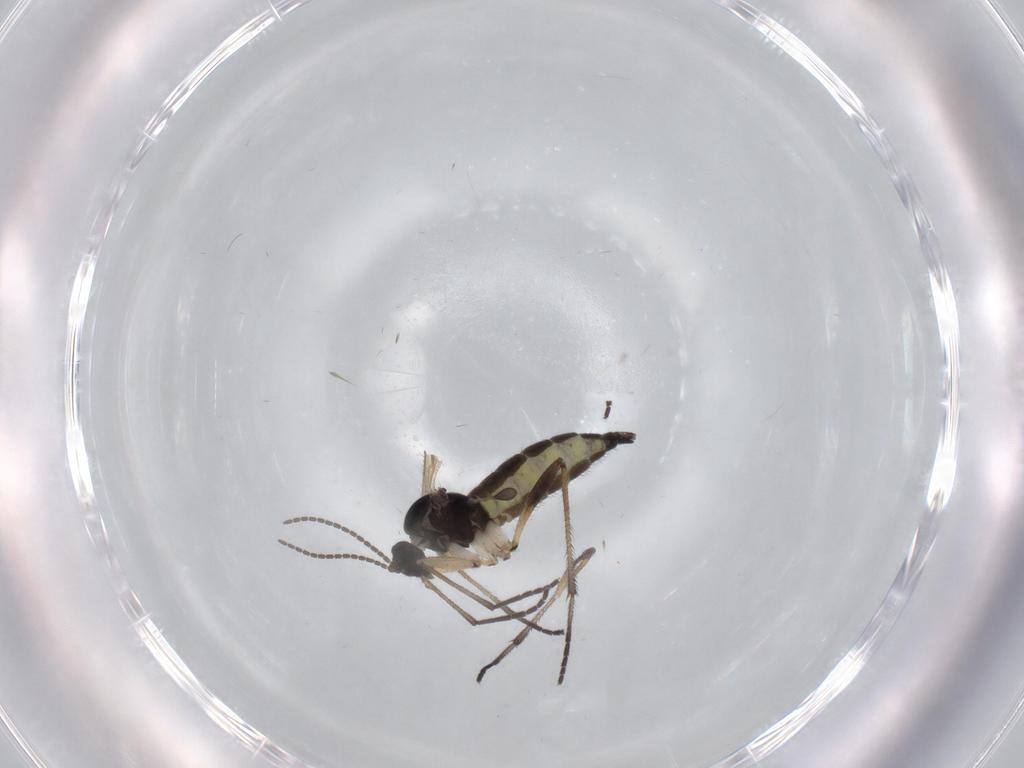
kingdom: Animalia
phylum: Arthropoda
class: Insecta
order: Diptera
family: Sciaridae
